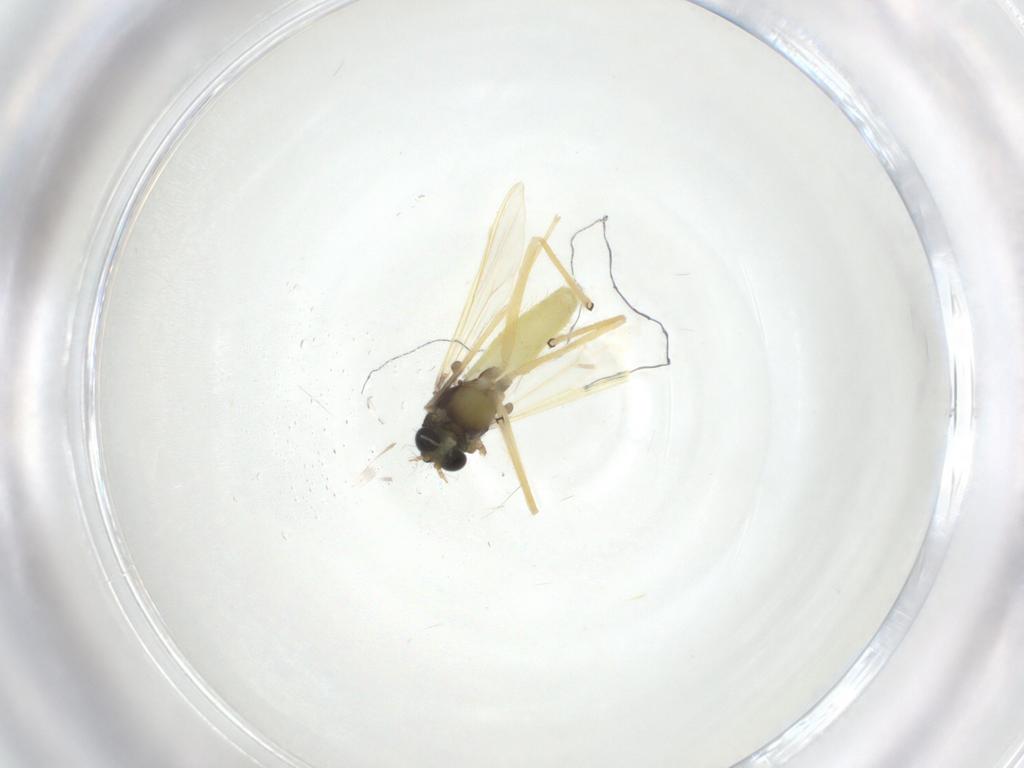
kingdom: Animalia
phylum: Arthropoda
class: Insecta
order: Diptera
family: Chironomidae
